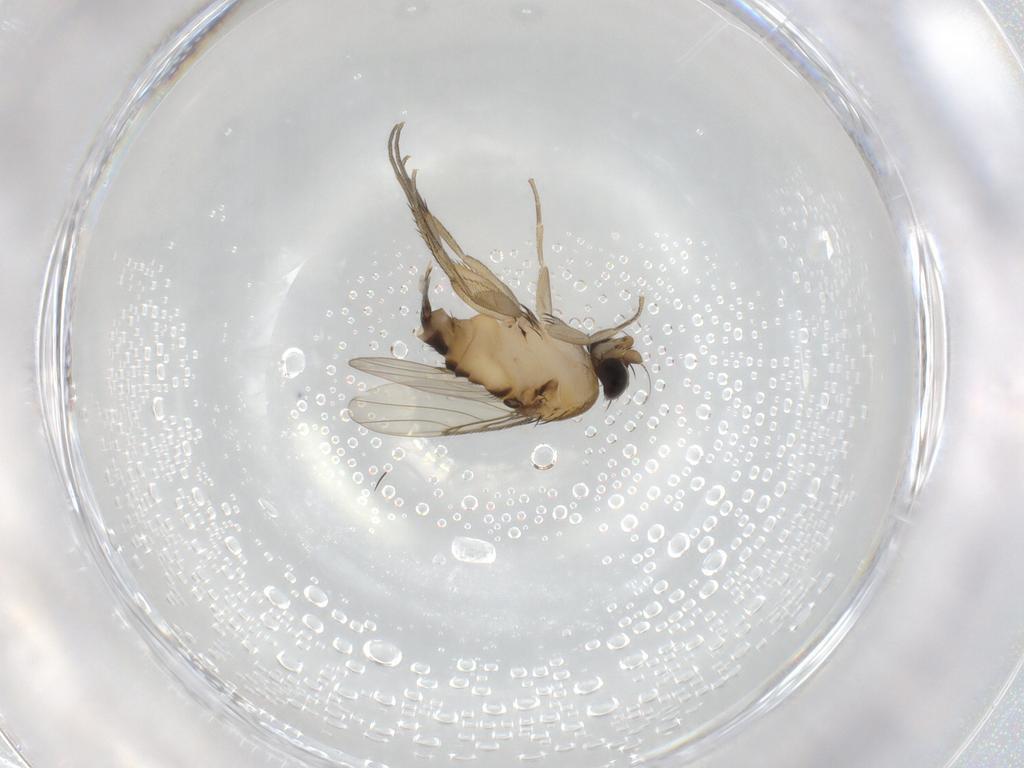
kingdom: Animalia
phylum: Arthropoda
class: Insecta
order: Diptera
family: Phoridae
